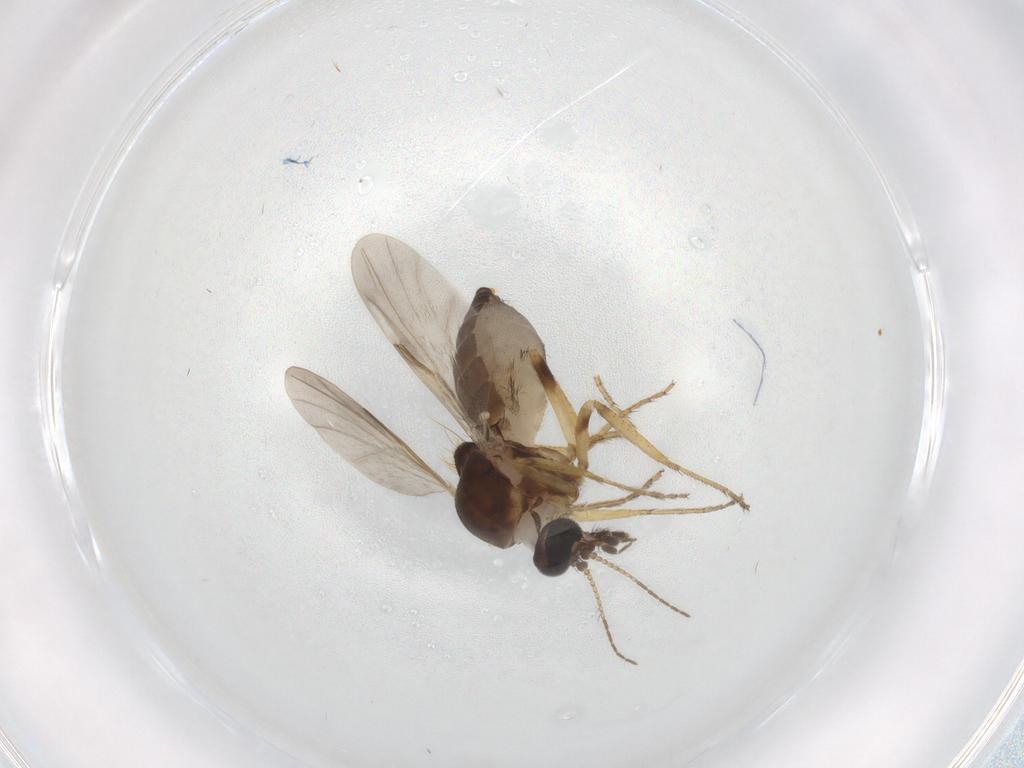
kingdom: Animalia
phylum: Arthropoda
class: Insecta
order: Diptera
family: Ceratopogonidae
